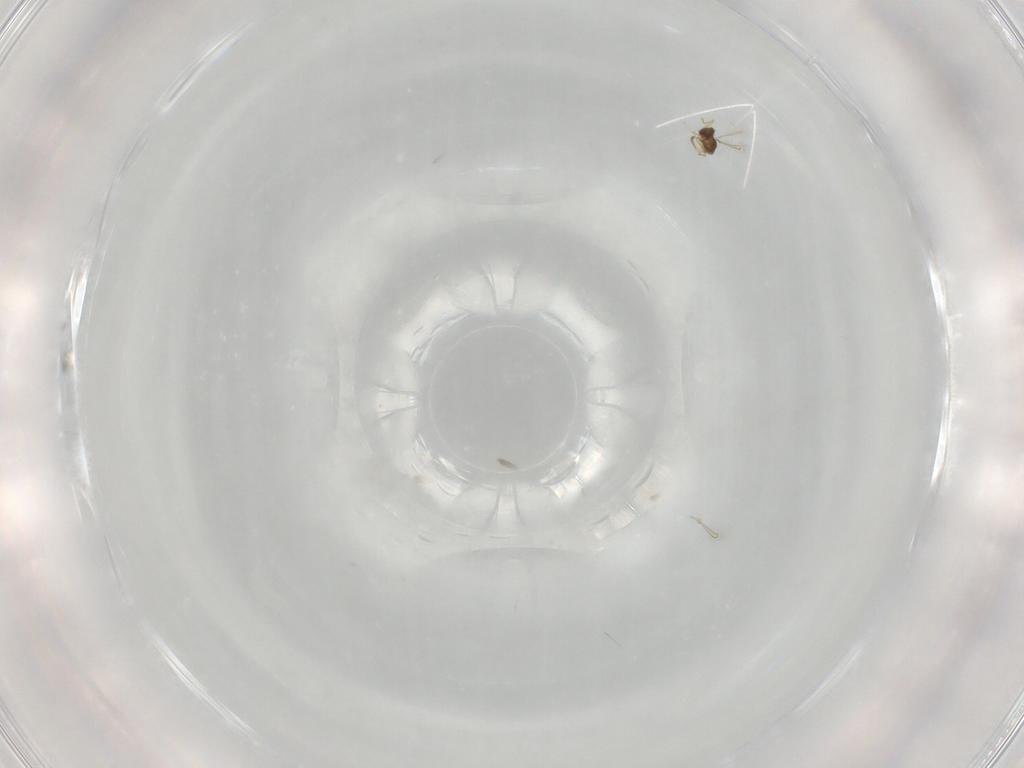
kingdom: Animalia
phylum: Arthropoda
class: Insecta
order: Hymenoptera
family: Vespidae
